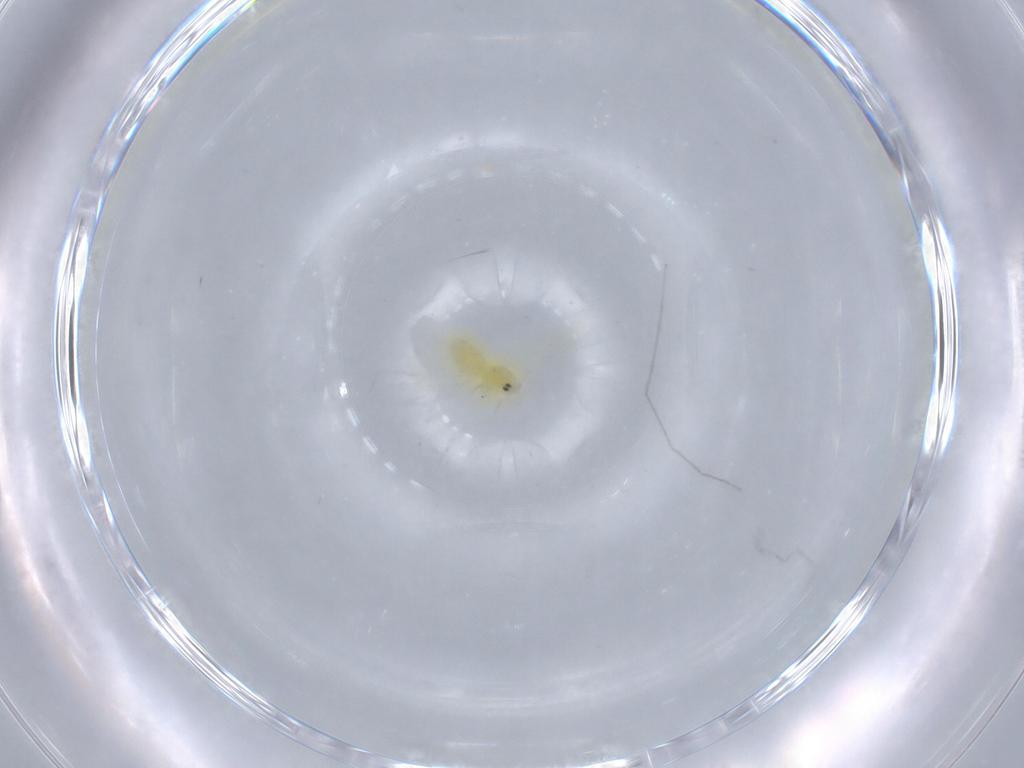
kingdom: Animalia
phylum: Arthropoda
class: Insecta
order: Hemiptera
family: Aleyrodidae
